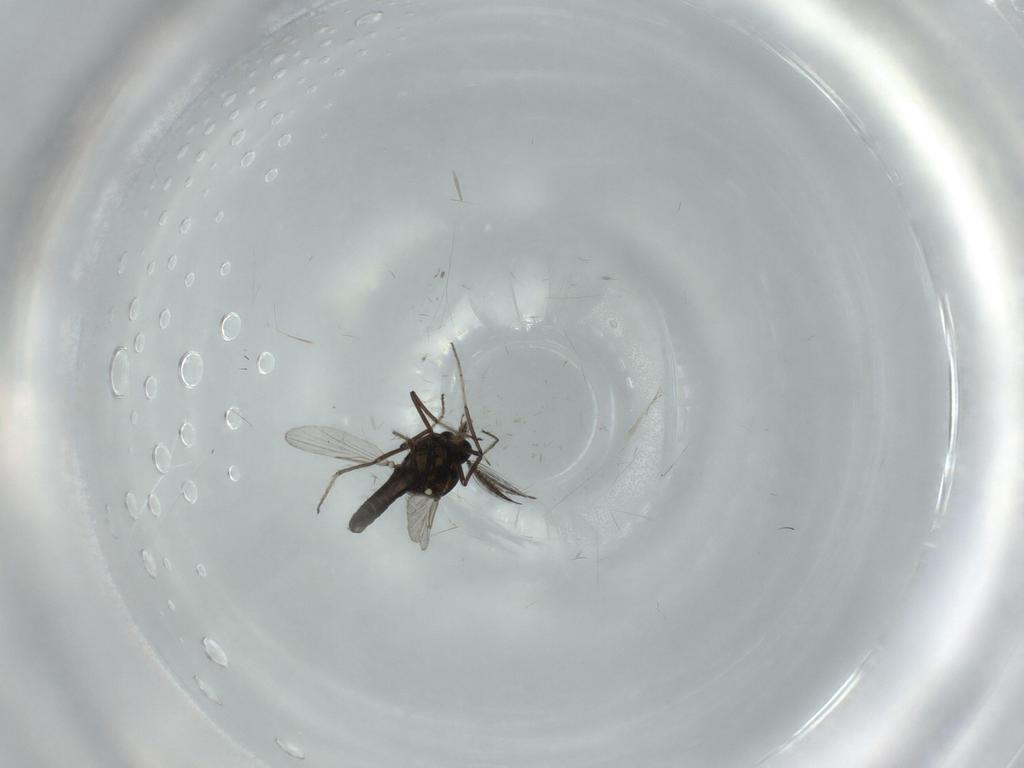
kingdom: Animalia
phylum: Arthropoda
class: Insecta
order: Diptera
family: Ceratopogonidae
